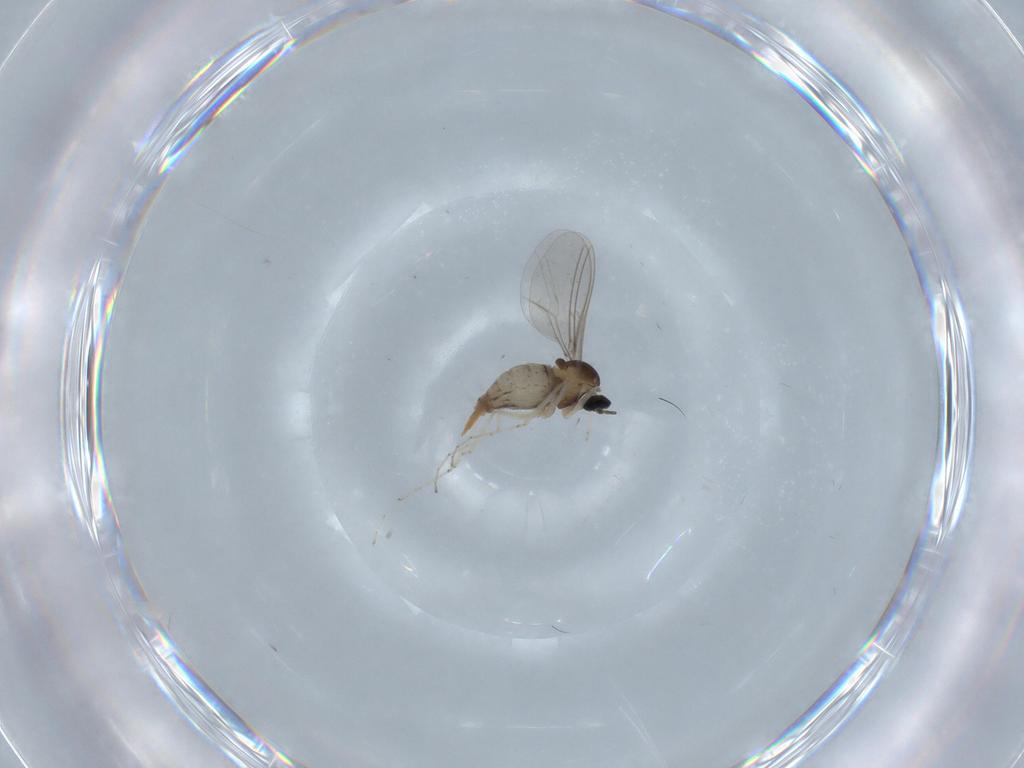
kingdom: Animalia
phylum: Arthropoda
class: Insecta
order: Diptera
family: Cecidomyiidae
